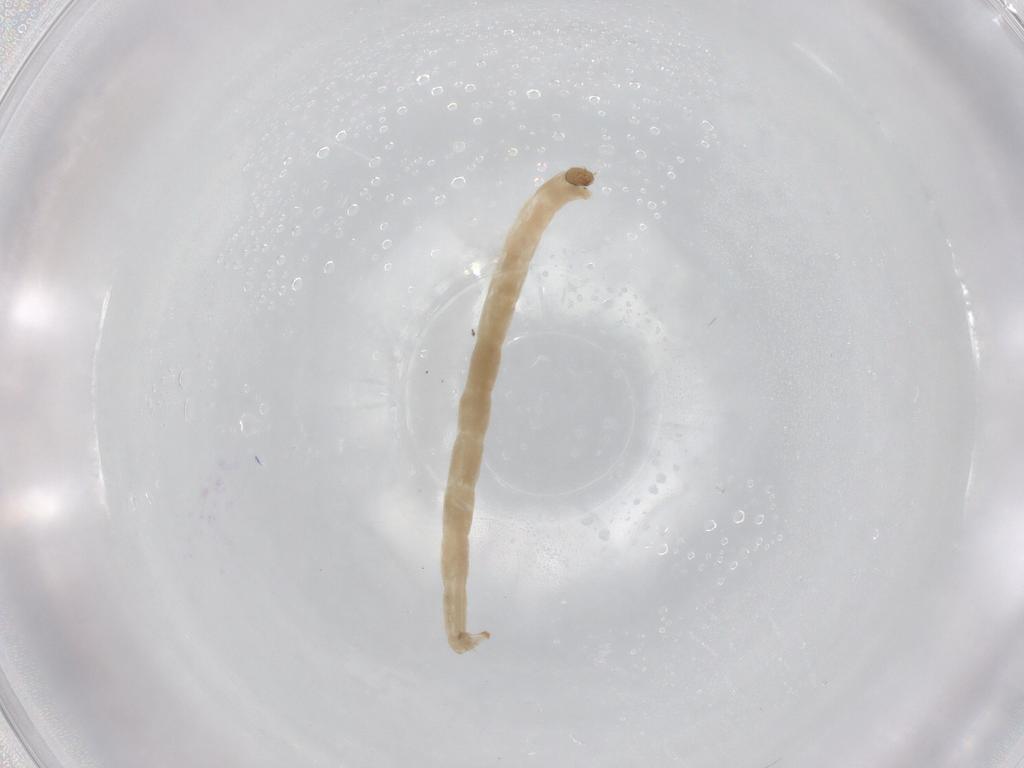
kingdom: Animalia
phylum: Arthropoda
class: Insecta
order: Diptera
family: Chironomidae
